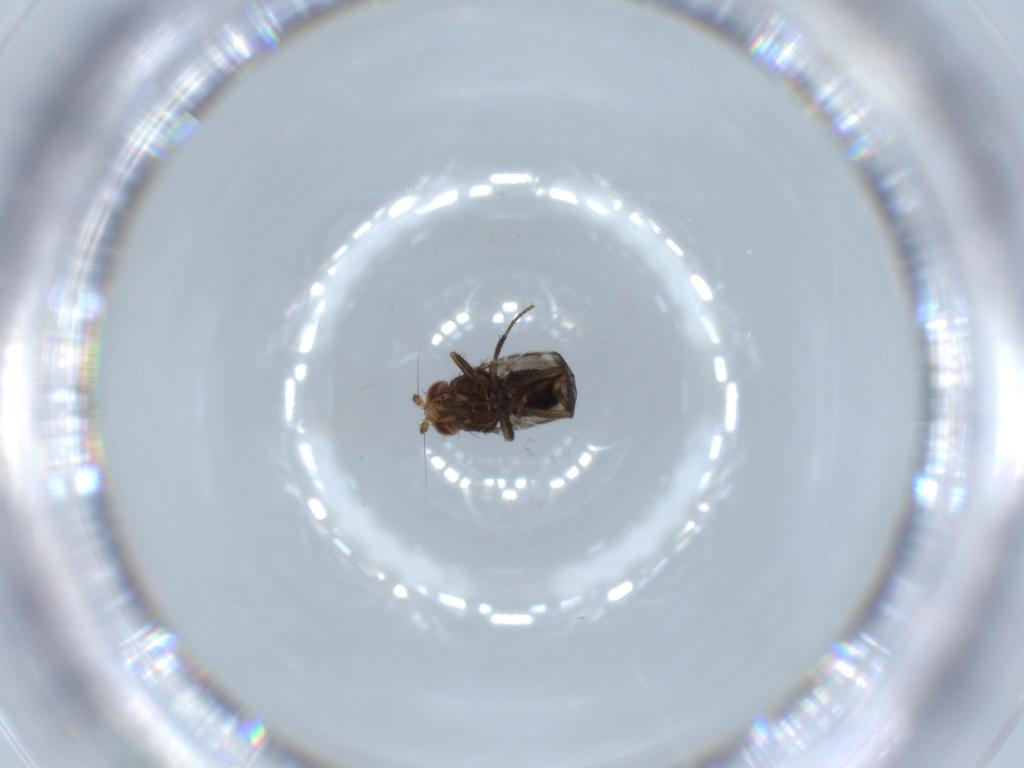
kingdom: Animalia
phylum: Arthropoda
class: Insecta
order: Diptera
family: Sphaeroceridae
